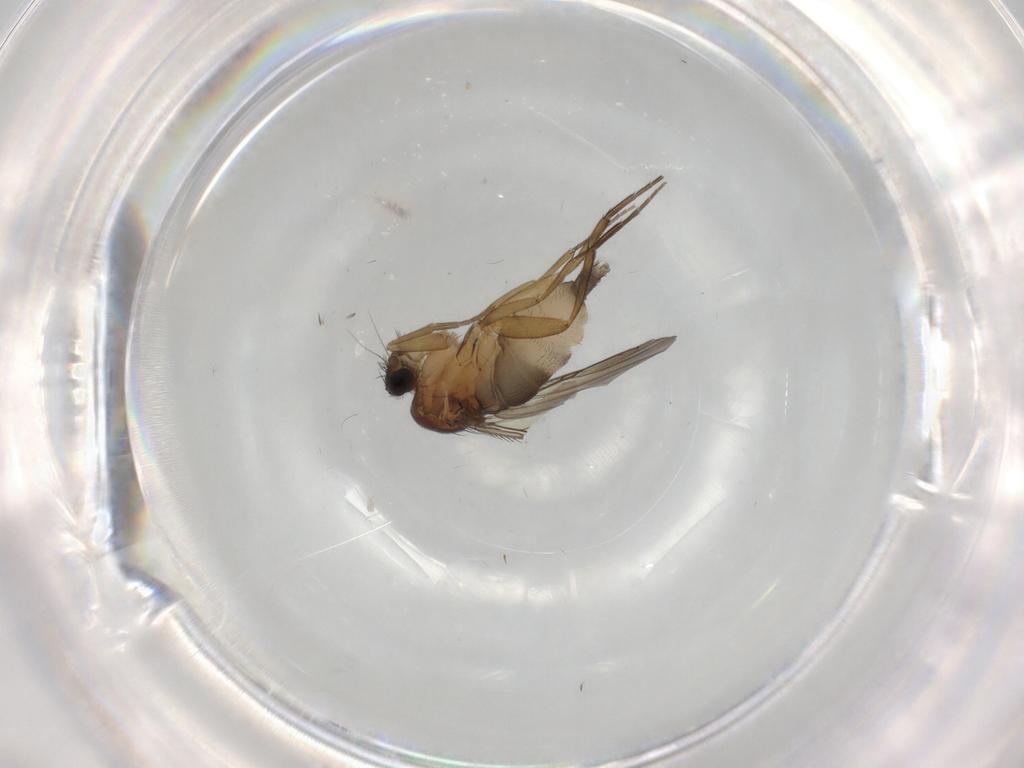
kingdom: Animalia
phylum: Arthropoda
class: Insecta
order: Diptera
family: Phoridae
